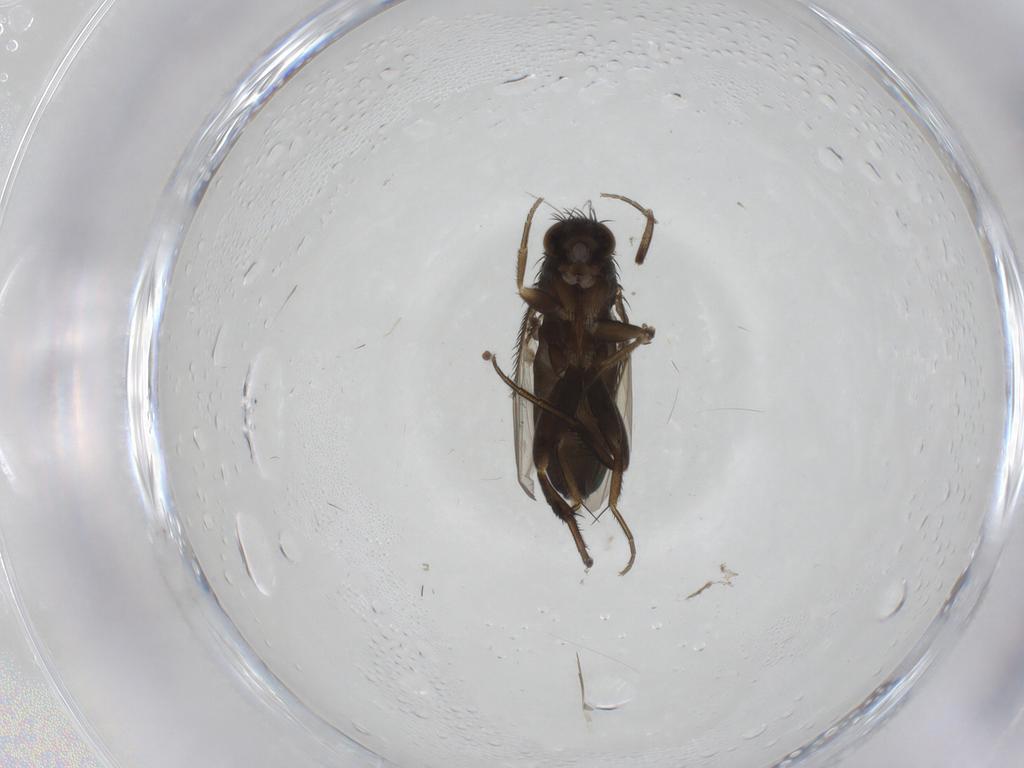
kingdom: Animalia
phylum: Arthropoda
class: Insecta
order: Diptera
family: Phoridae
